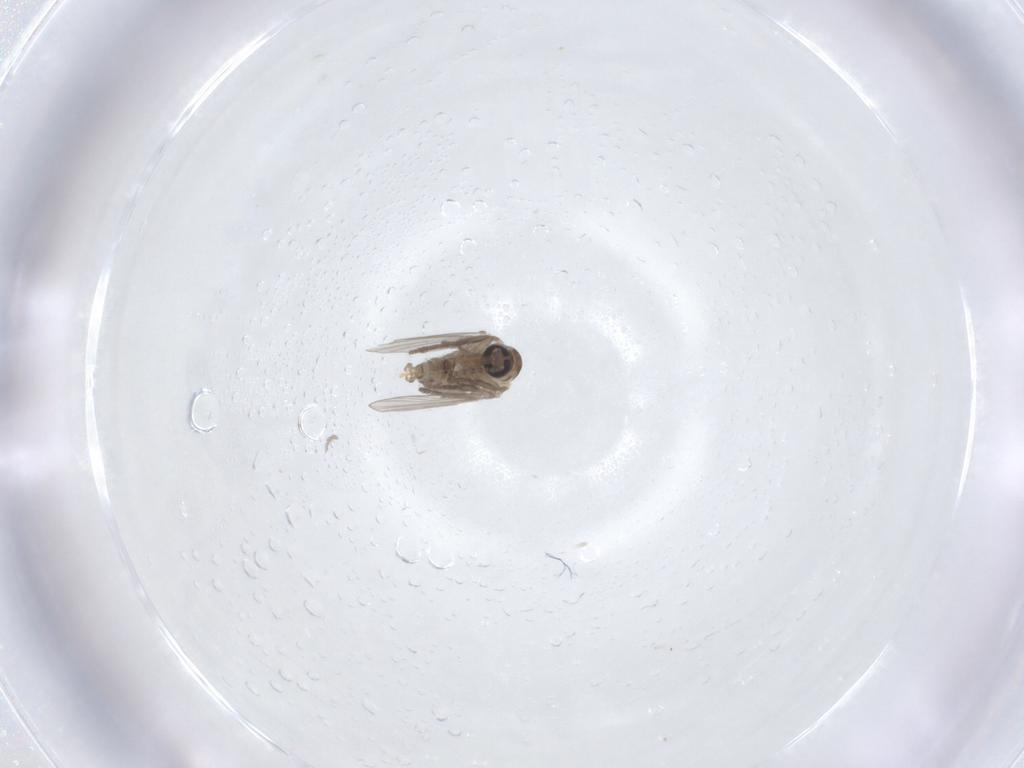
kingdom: Animalia
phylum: Arthropoda
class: Insecta
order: Diptera
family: Psychodidae
